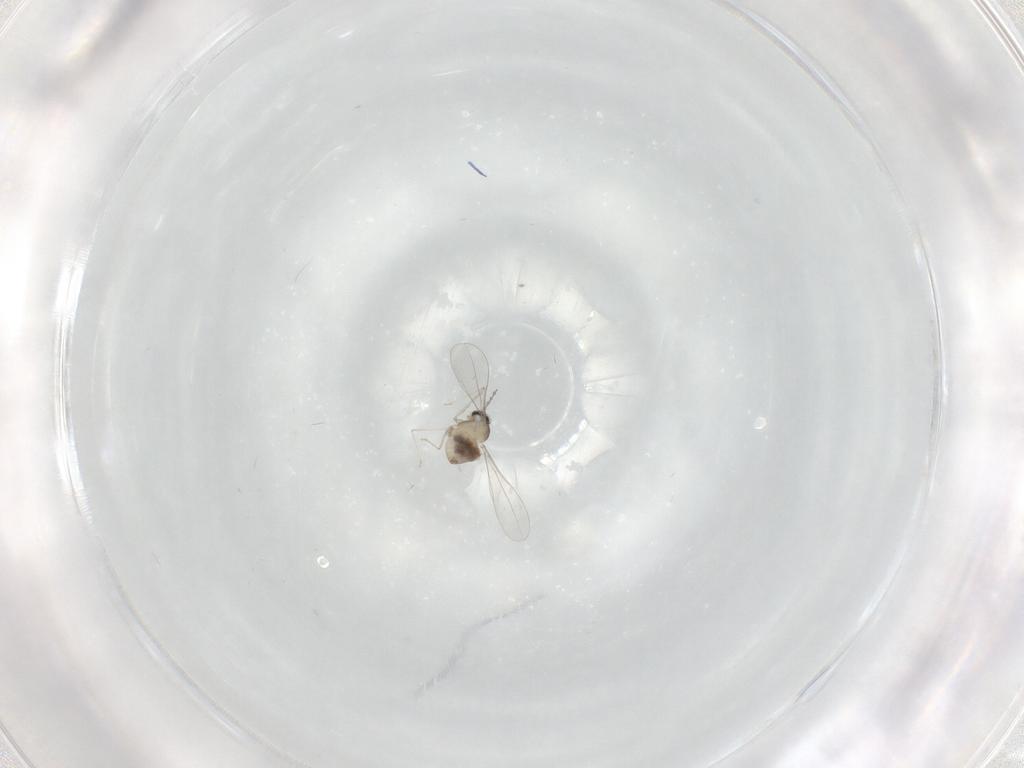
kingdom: Animalia
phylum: Arthropoda
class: Insecta
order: Diptera
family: Cecidomyiidae
